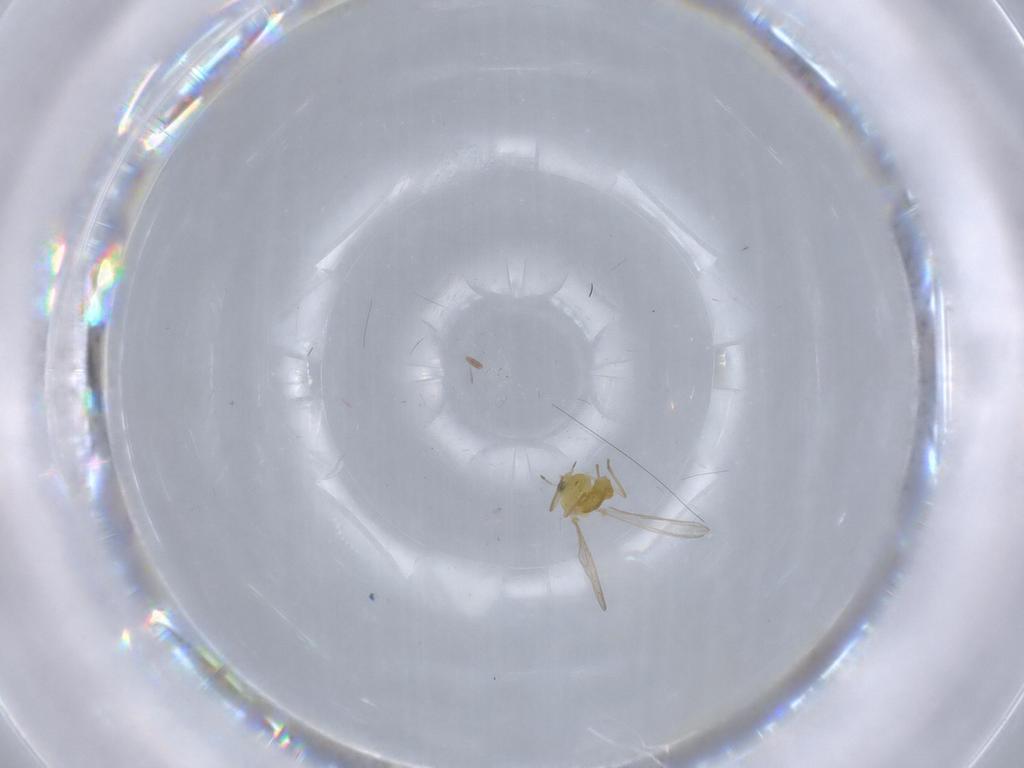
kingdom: Animalia
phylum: Arthropoda
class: Insecta
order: Diptera
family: Chironomidae
